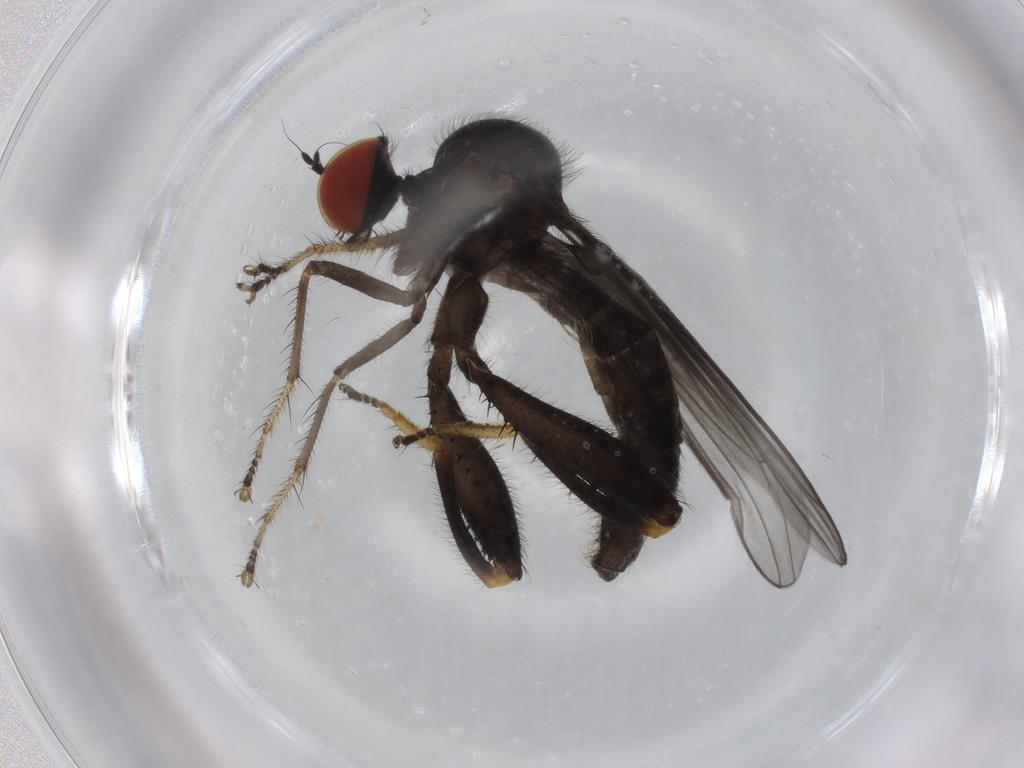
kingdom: Animalia
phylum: Arthropoda
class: Insecta
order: Diptera
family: Hybotidae
